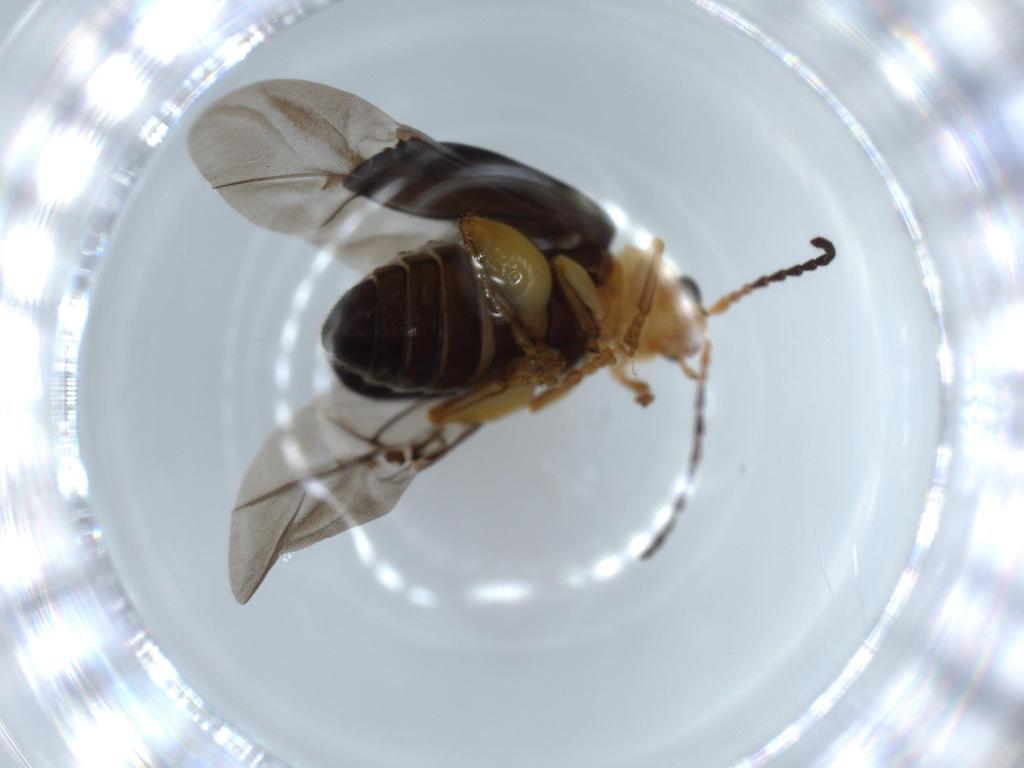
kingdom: Animalia
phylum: Arthropoda
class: Insecta
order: Coleoptera
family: Chrysomelidae
